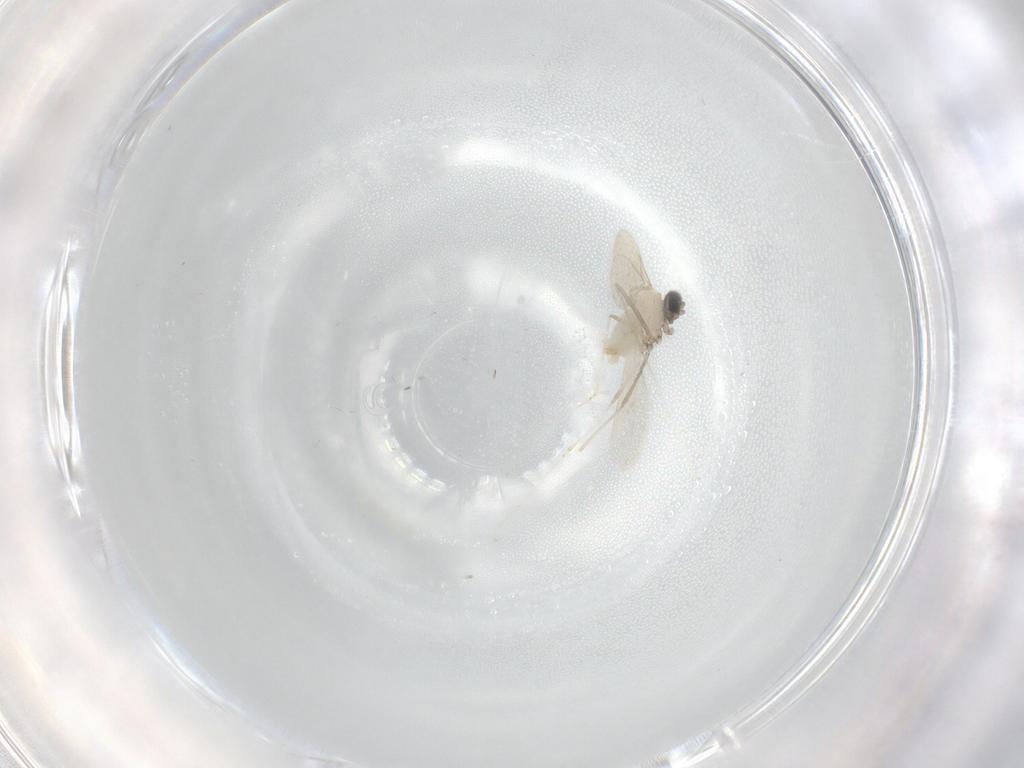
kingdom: Animalia
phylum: Arthropoda
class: Insecta
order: Diptera
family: Cecidomyiidae
